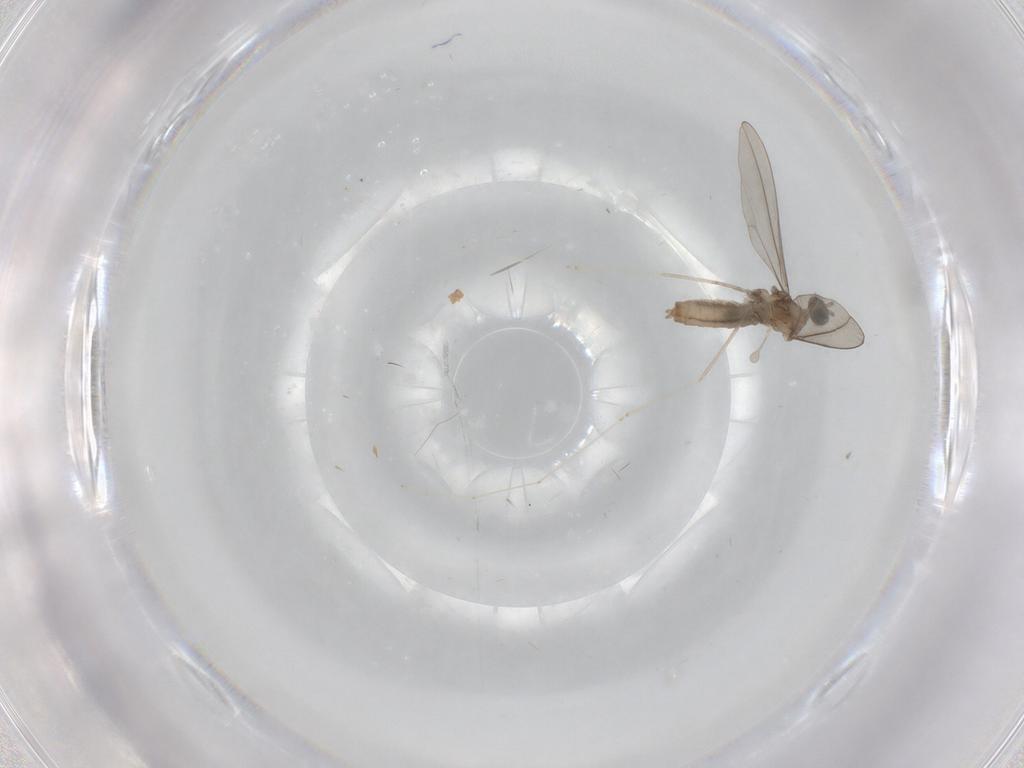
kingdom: Animalia
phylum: Arthropoda
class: Insecta
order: Diptera
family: Cecidomyiidae
